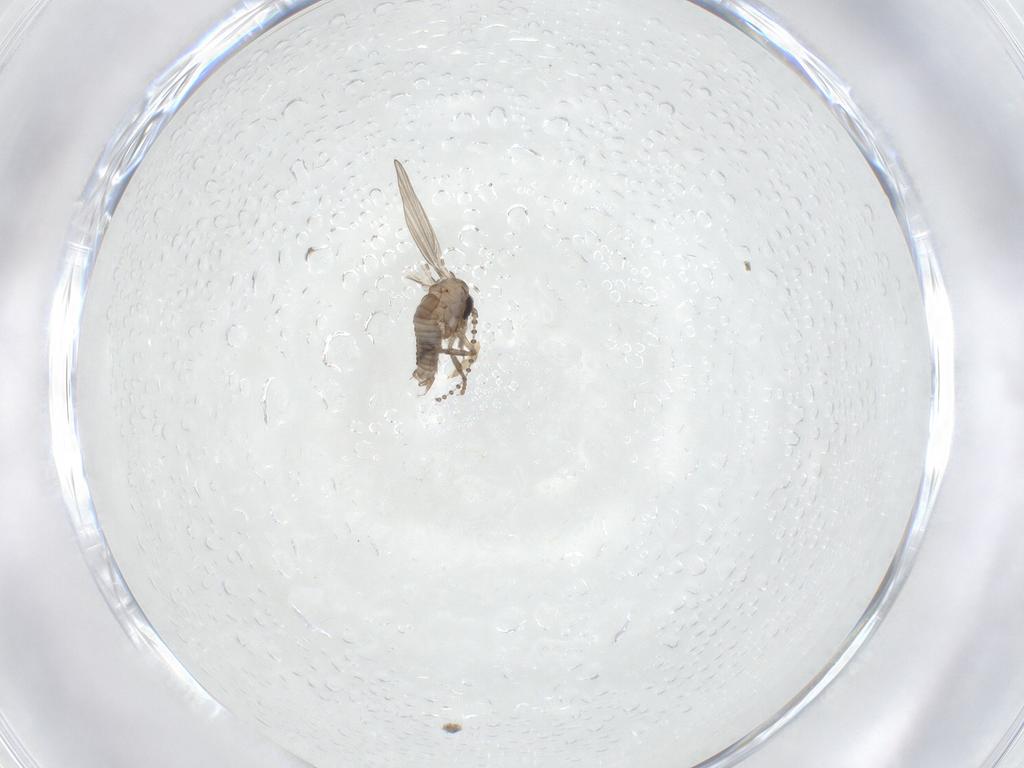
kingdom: Animalia
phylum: Arthropoda
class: Insecta
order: Diptera
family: Psychodidae
